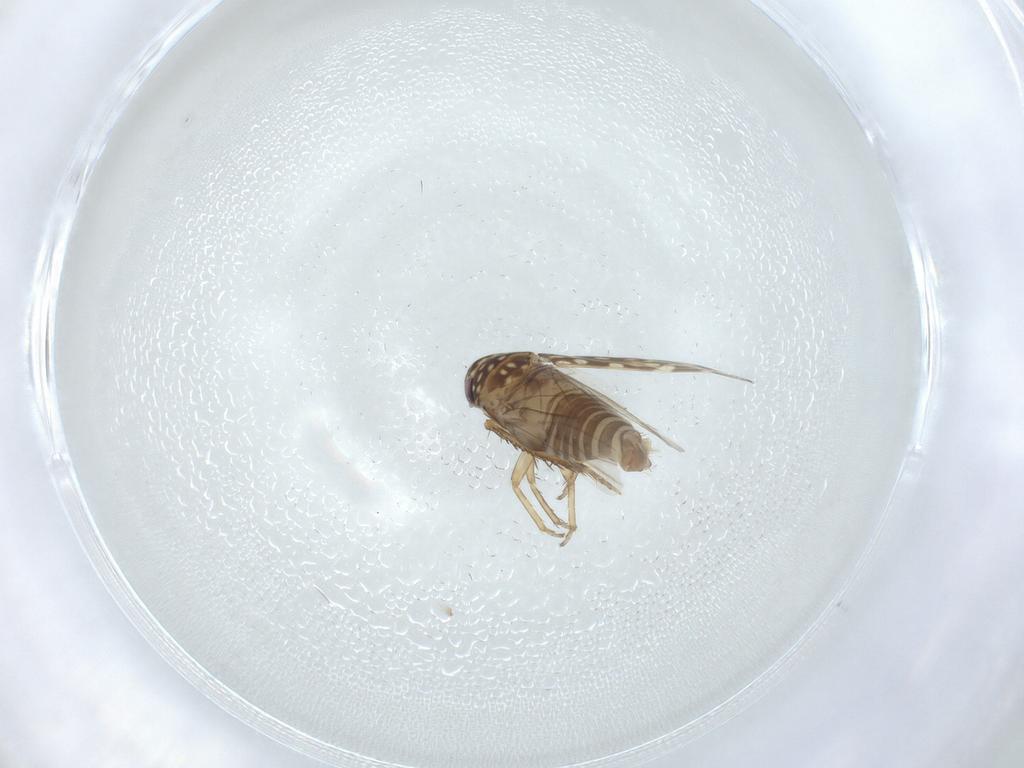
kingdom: Animalia
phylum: Arthropoda
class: Insecta
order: Hemiptera
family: Cicadellidae
